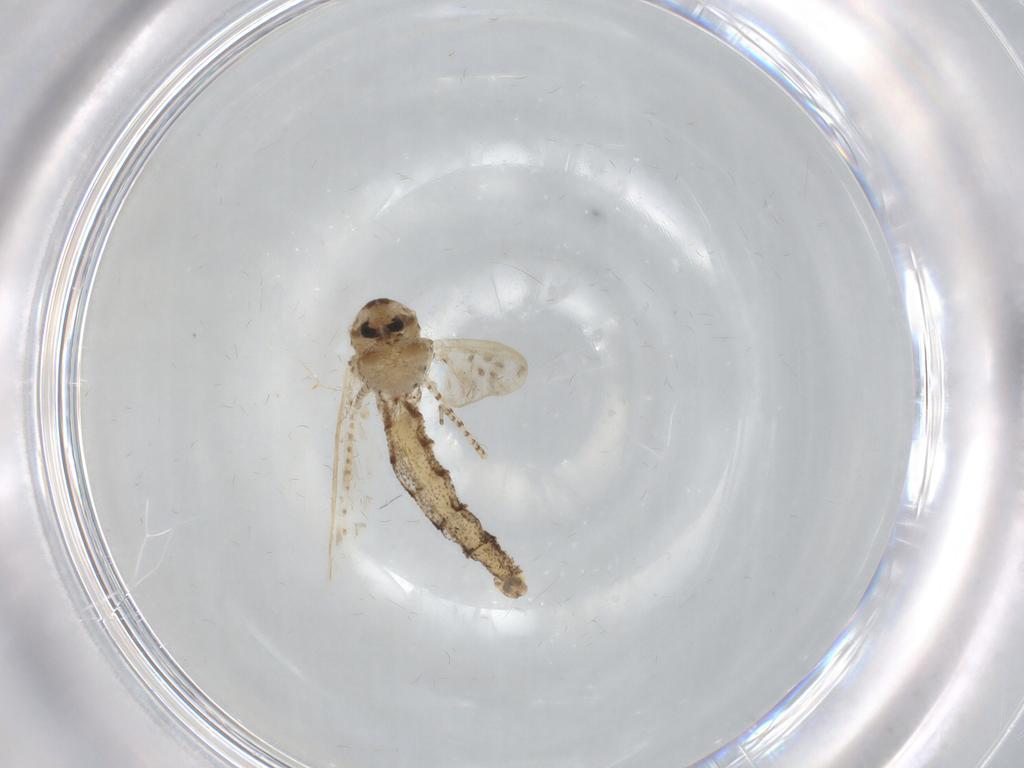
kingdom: Animalia
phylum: Arthropoda
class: Insecta
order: Diptera
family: Chaoboridae
